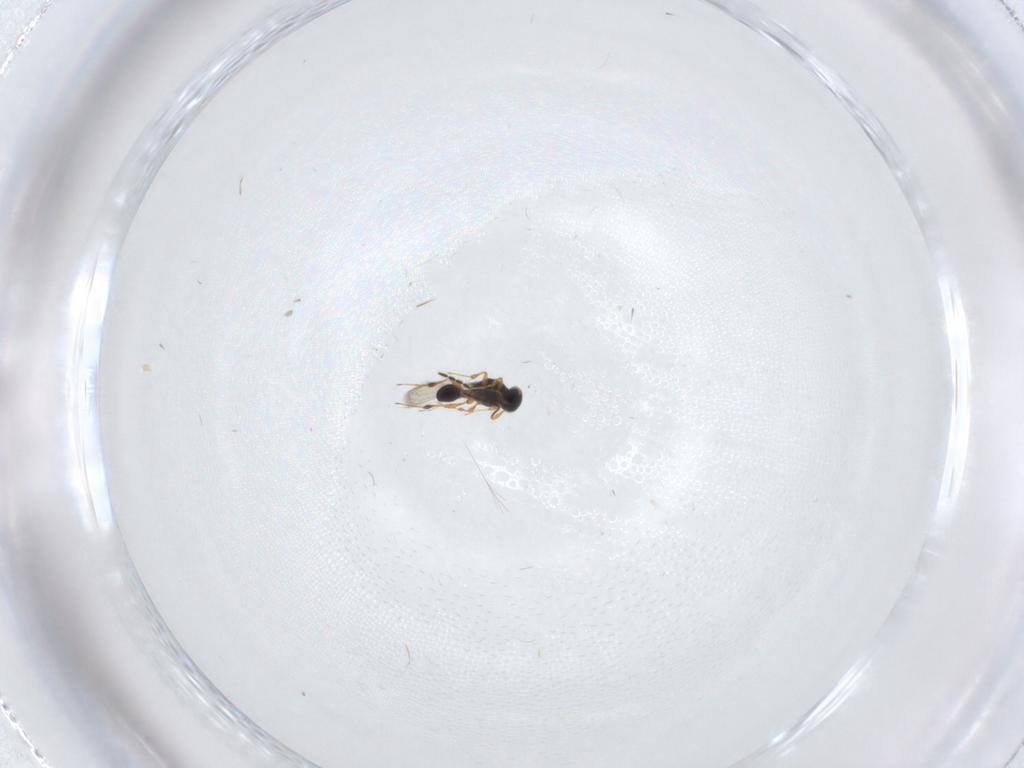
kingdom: Animalia
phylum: Arthropoda
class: Insecta
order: Hymenoptera
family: Platygastridae
